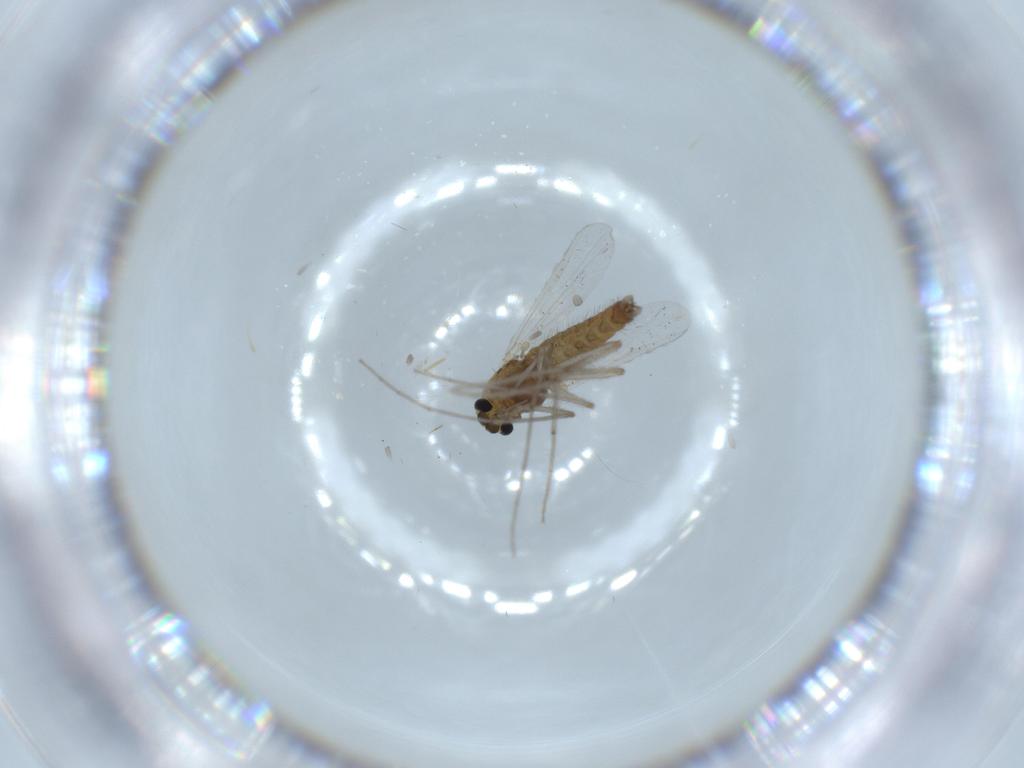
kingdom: Animalia
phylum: Arthropoda
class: Insecta
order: Diptera
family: Chironomidae
